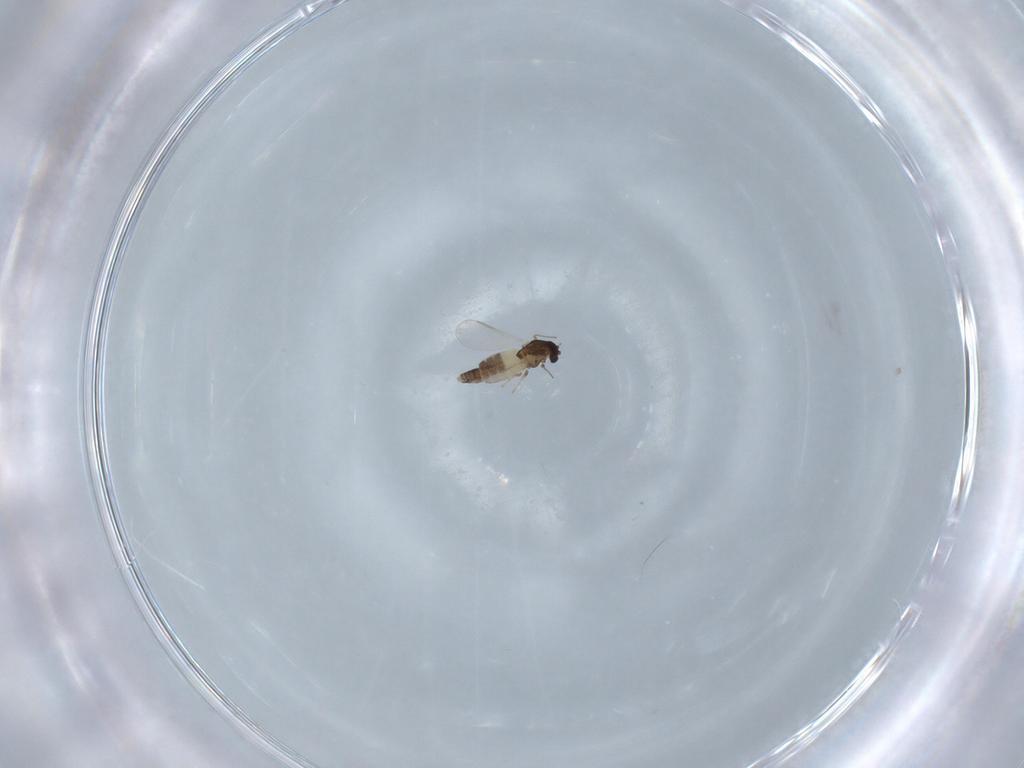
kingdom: Animalia
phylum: Arthropoda
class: Insecta
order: Diptera
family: Chironomidae
